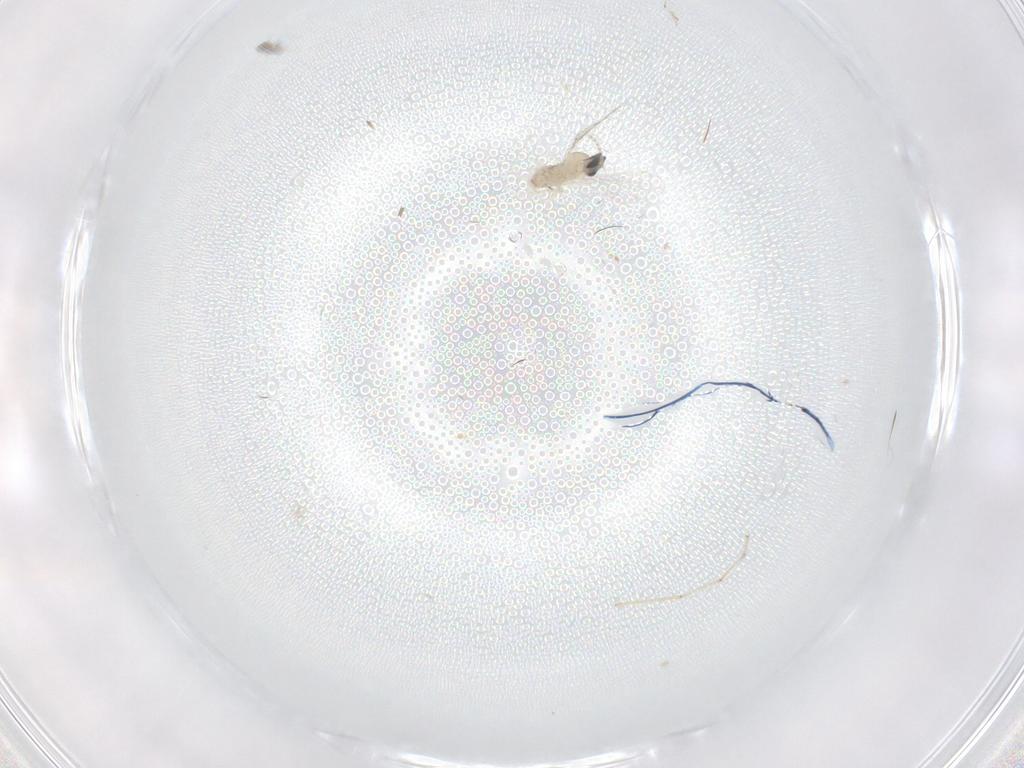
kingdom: Animalia
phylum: Arthropoda
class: Insecta
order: Diptera
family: Cecidomyiidae
